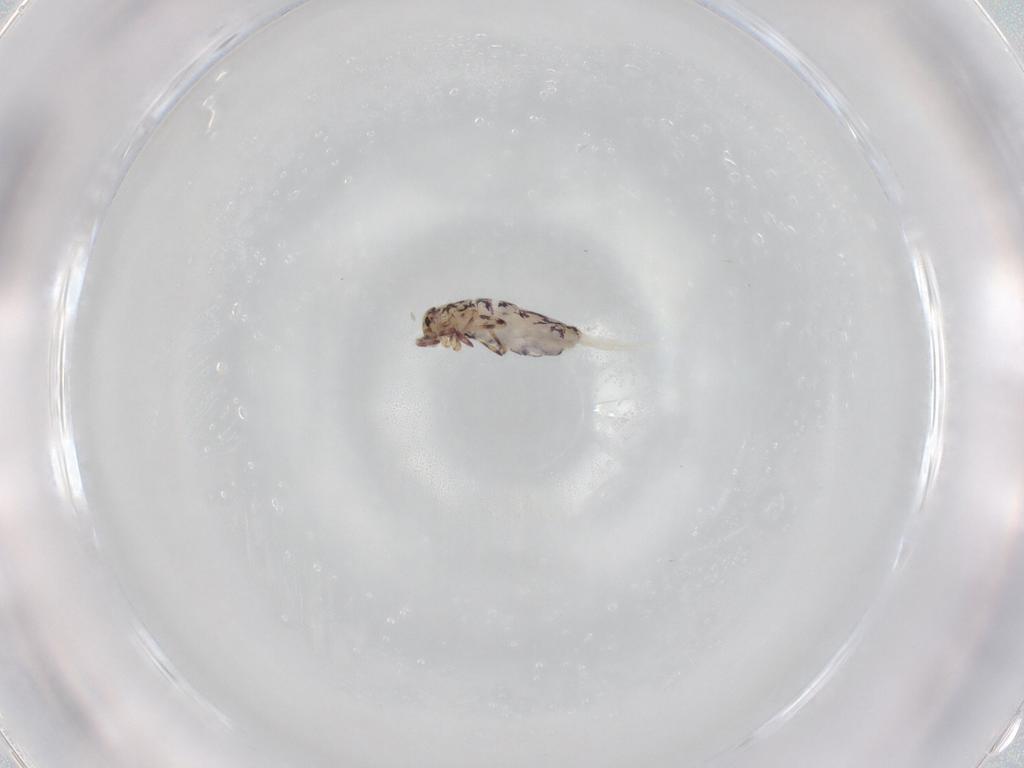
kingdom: Animalia
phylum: Arthropoda
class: Collembola
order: Entomobryomorpha
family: Entomobryidae
